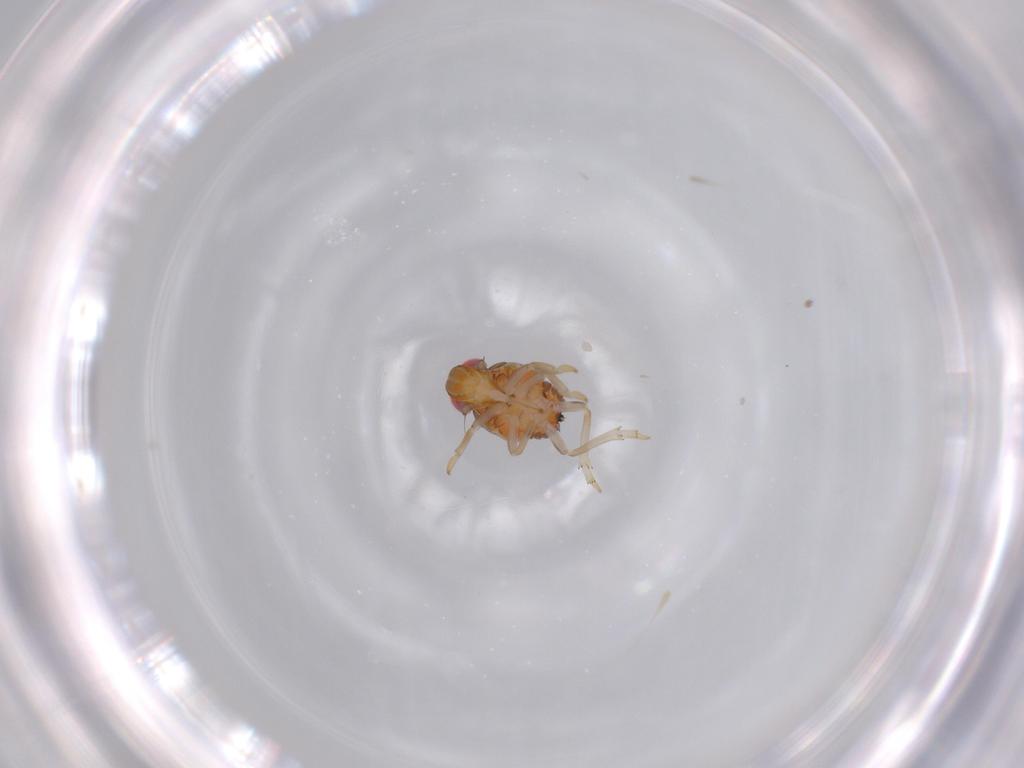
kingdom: Animalia
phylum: Arthropoda
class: Insecta
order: Hemiptera
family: Issidae
